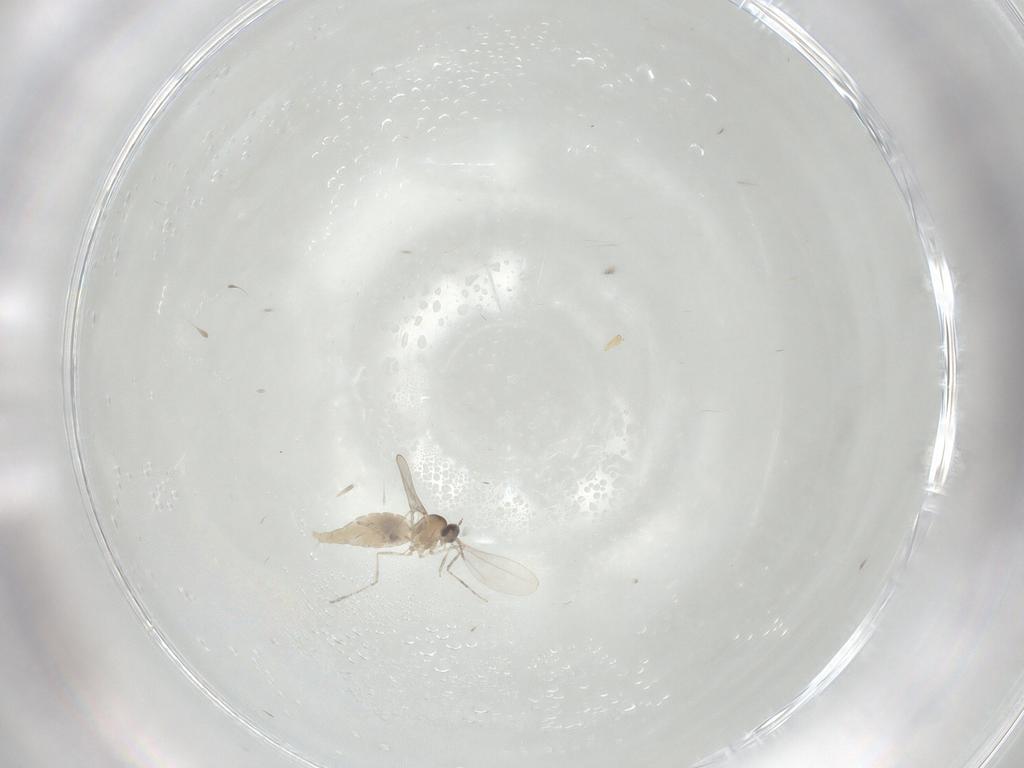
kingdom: Animalia
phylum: Arthropoda
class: Insecta
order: Diptera
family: Cecidomyiidae
